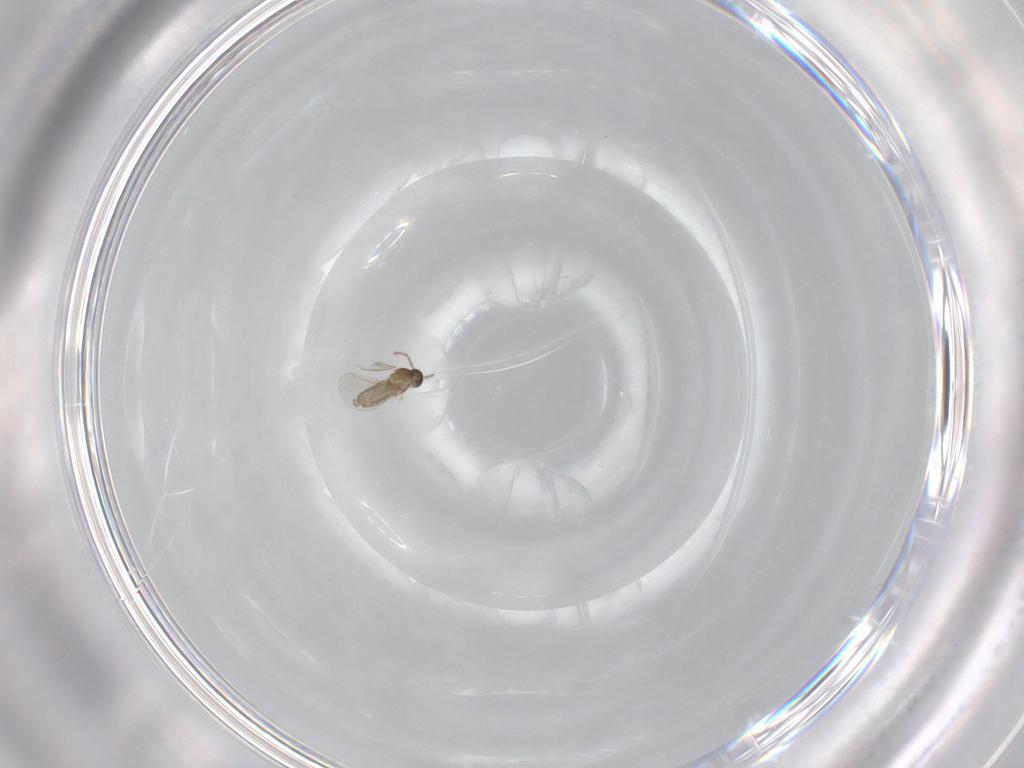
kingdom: Animalia
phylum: Arthropoda
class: Insecta
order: Diptera
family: Cecidomyiidae
